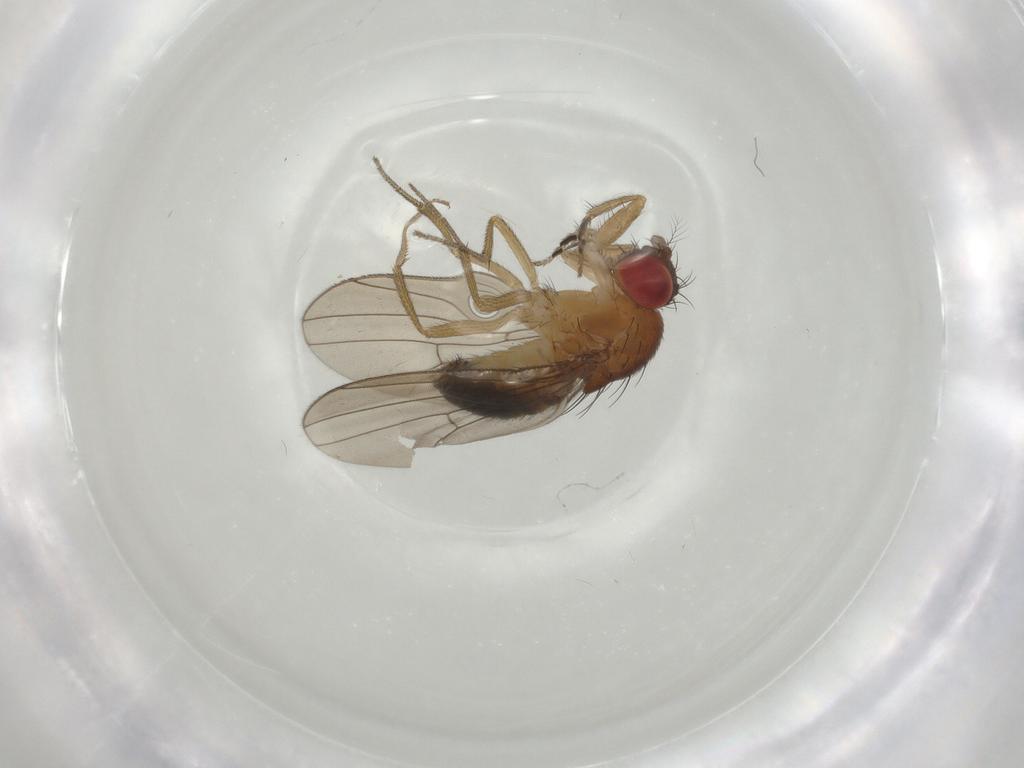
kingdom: Animalia
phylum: Arthropoda
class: Insecta
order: Diptera
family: Drosophilidae
